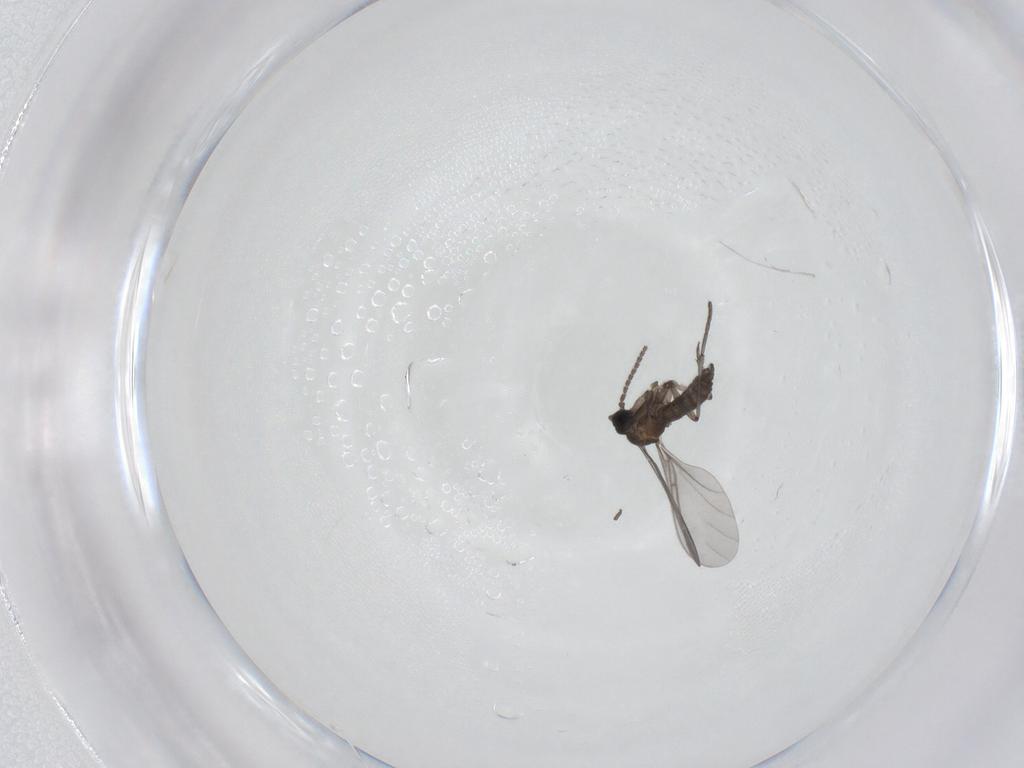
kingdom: Animalia
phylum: Arthropoda
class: Insecta
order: Diptera
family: Sciaridae
